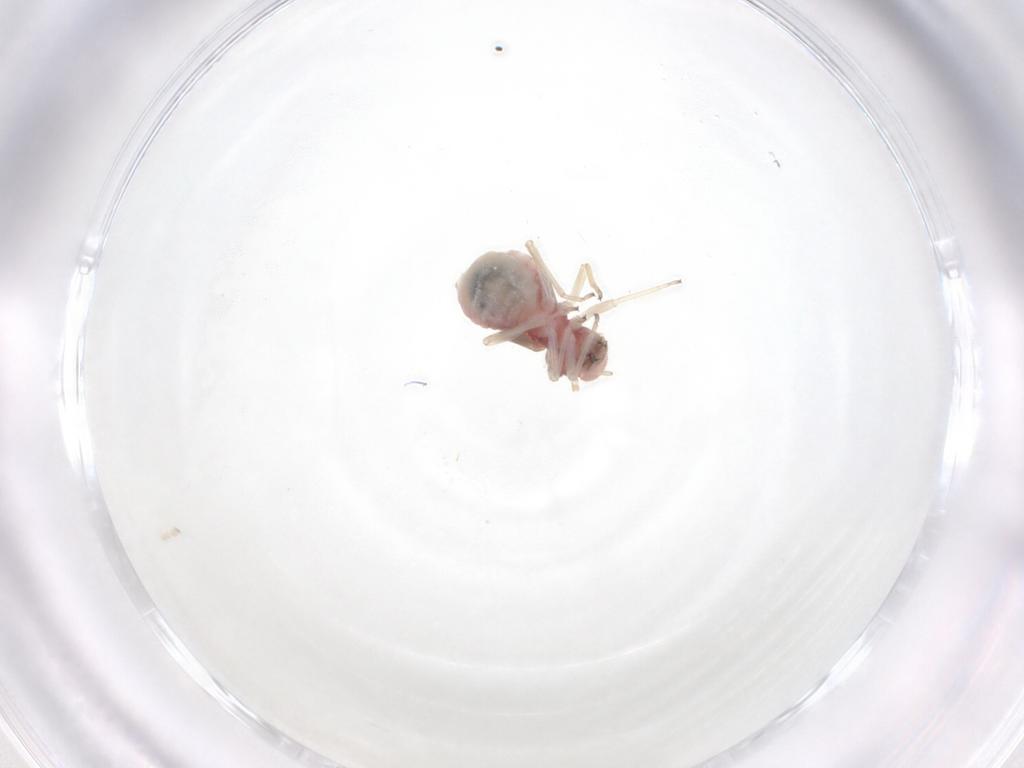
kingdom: Animalia
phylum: Arthropoda
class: Insecta
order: Psocodea
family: Caeciliusidae
